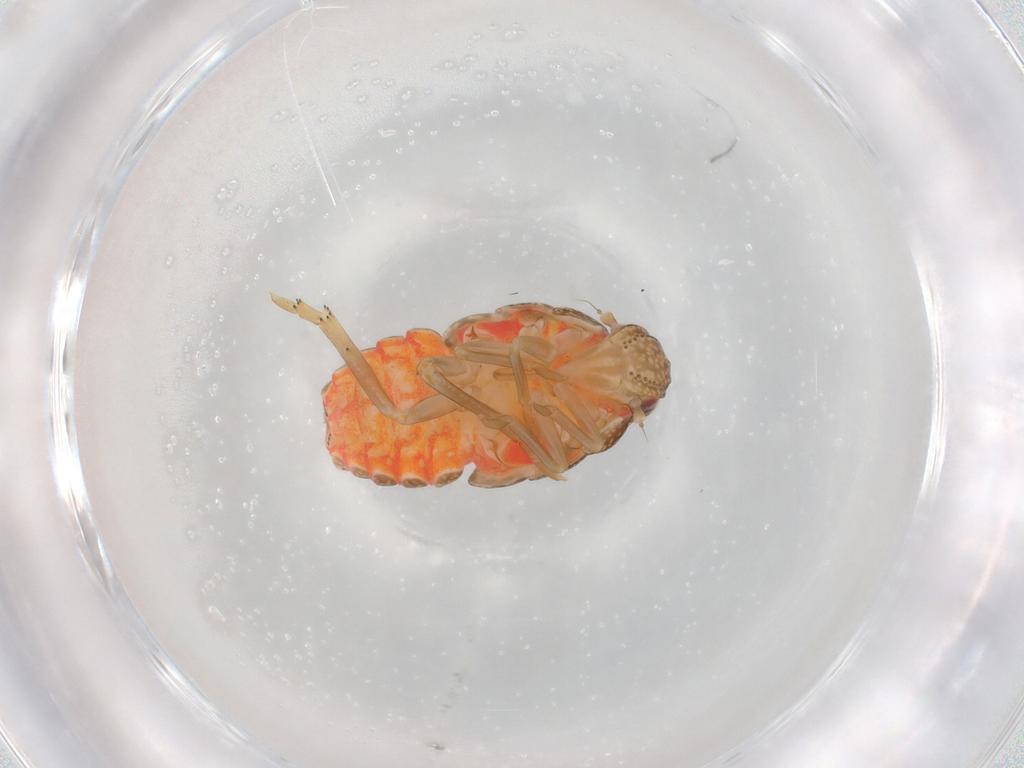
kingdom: Animalia
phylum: Arthropoda
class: Insecta
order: Hemiptera
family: Fulgoroidea_incertae_sedis
